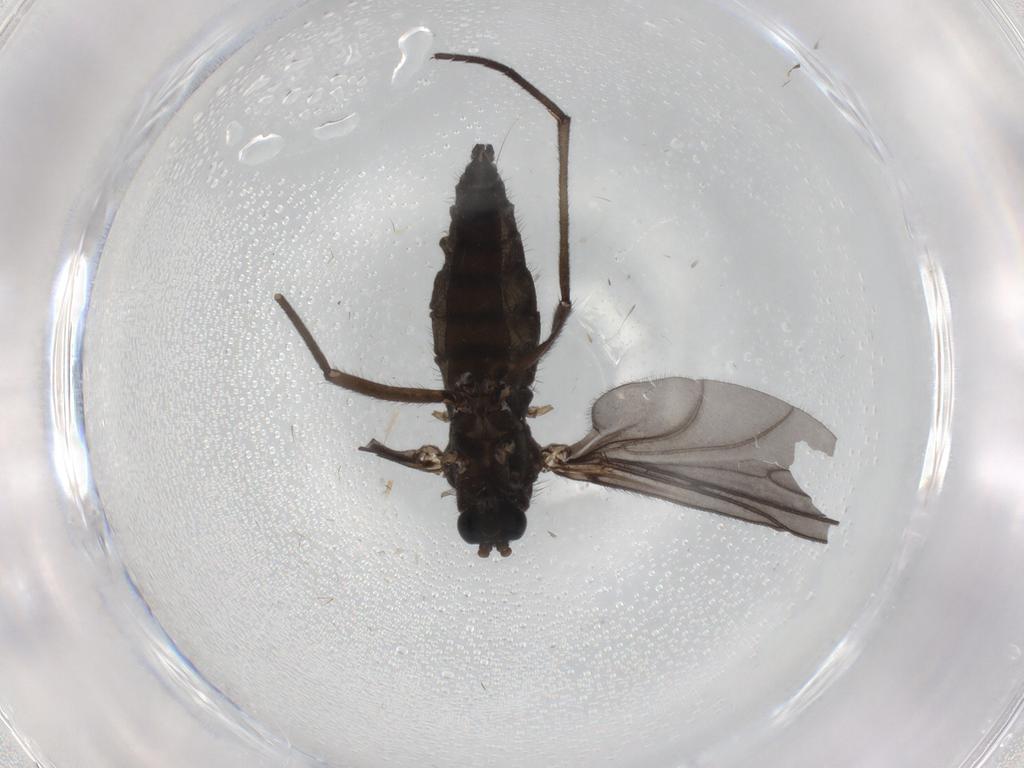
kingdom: Animalia
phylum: Arthropoda
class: Insecta
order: Diptera
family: Sciaridae
